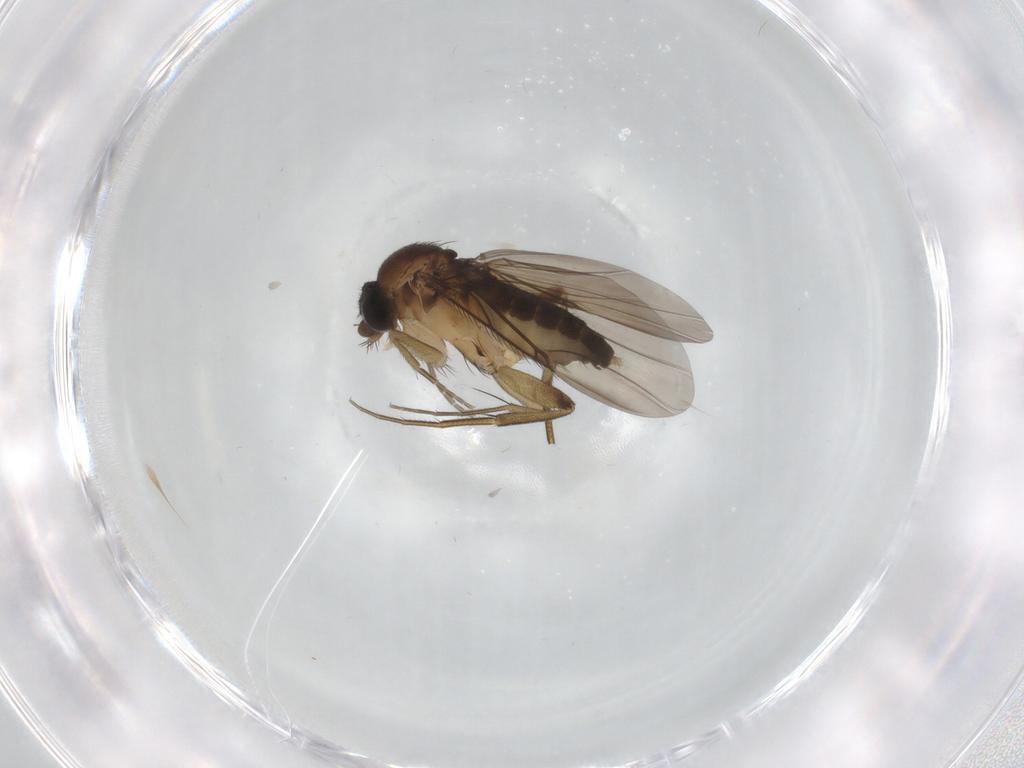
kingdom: Animalia
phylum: Arthropoda
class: Insecta
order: Diptera
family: Phoridae
